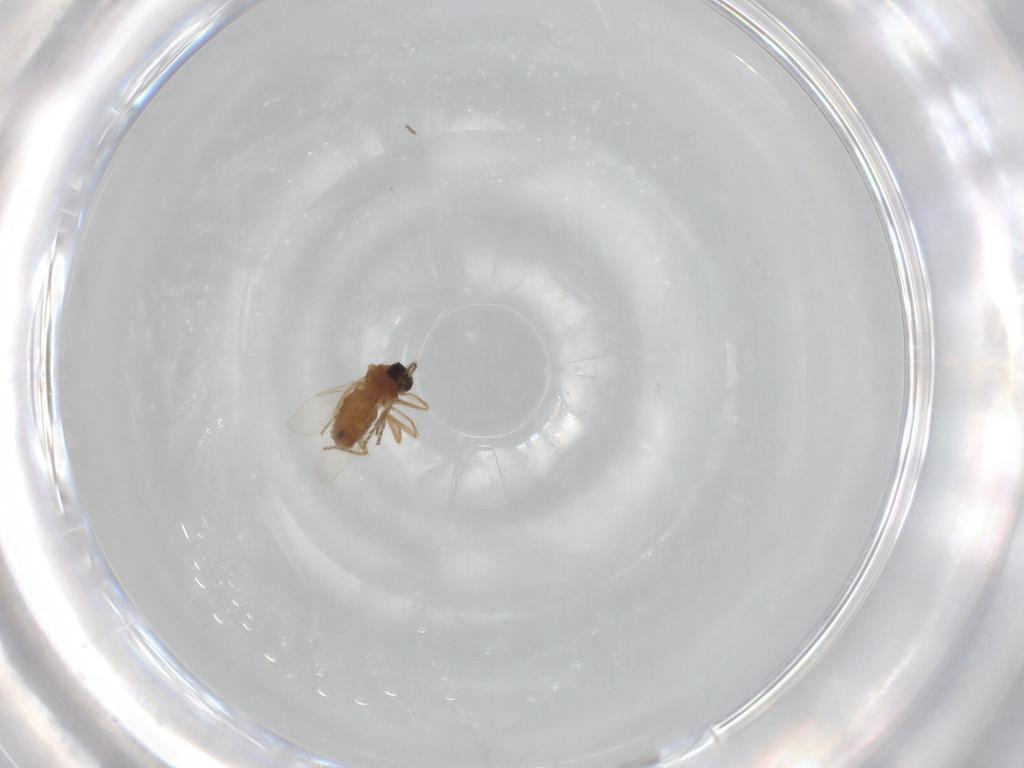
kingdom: Animalia
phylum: Arthropoda
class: Insecta
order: Diptera
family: Ceratopogonidae
